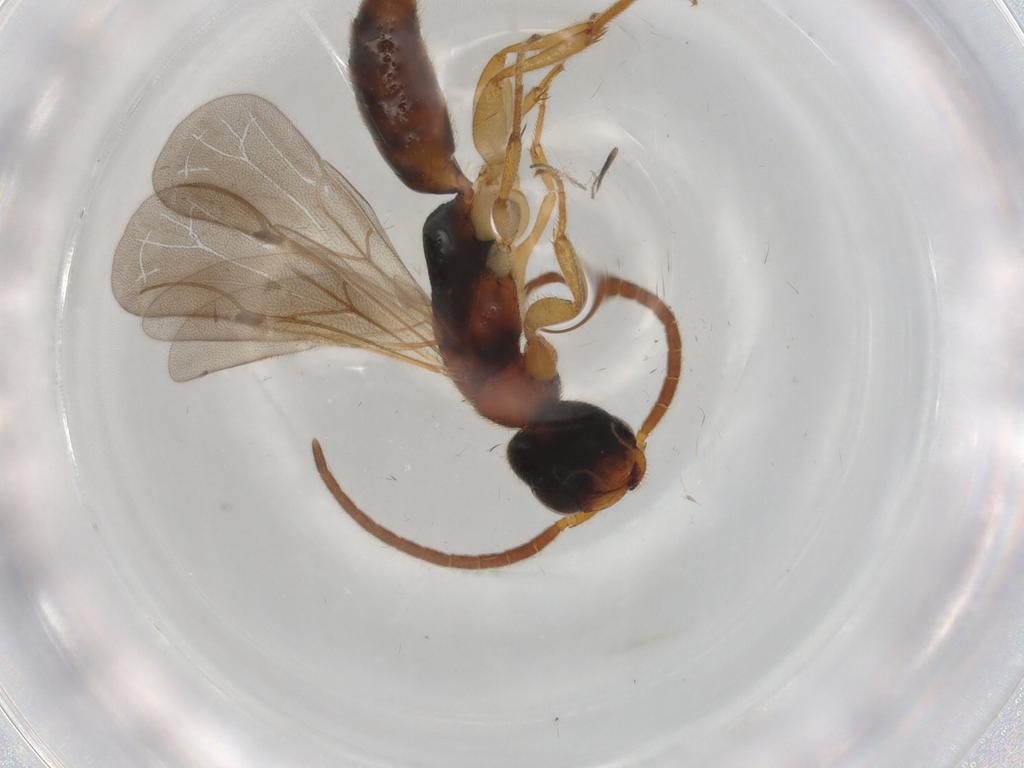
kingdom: Animalia
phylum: Arthropoda
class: Insecta
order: Hymenoptera
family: Bethylidae
